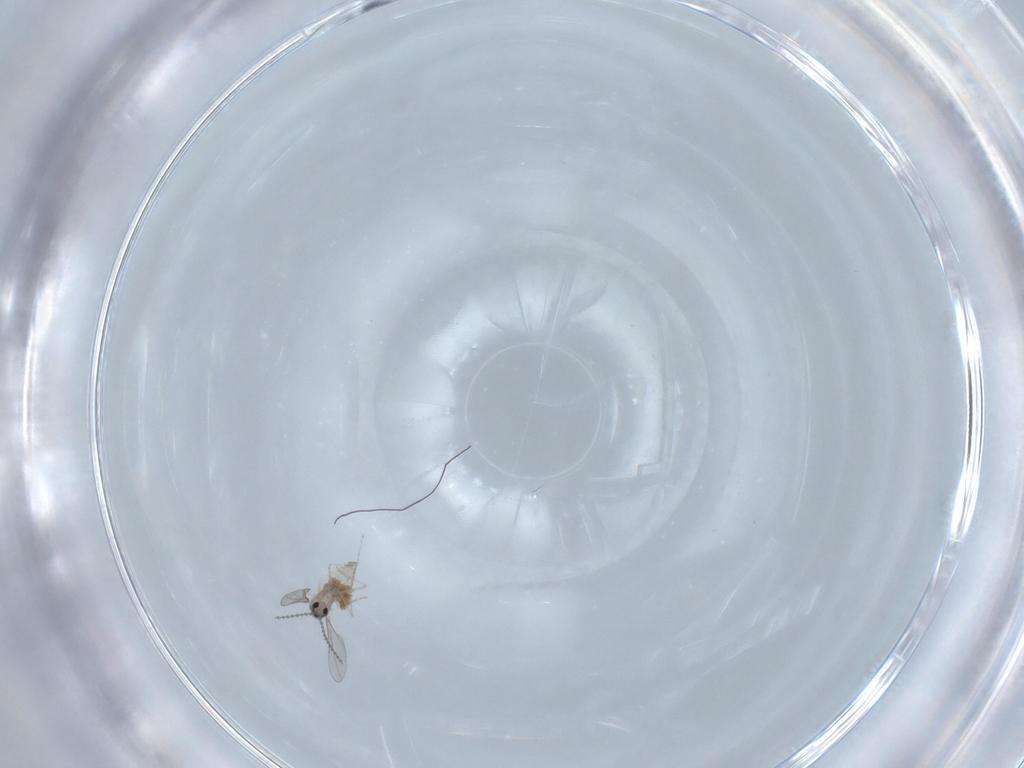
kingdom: Animalia
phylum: Arthropoda
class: Insecta
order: Diptera
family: Cecidomyiidae
